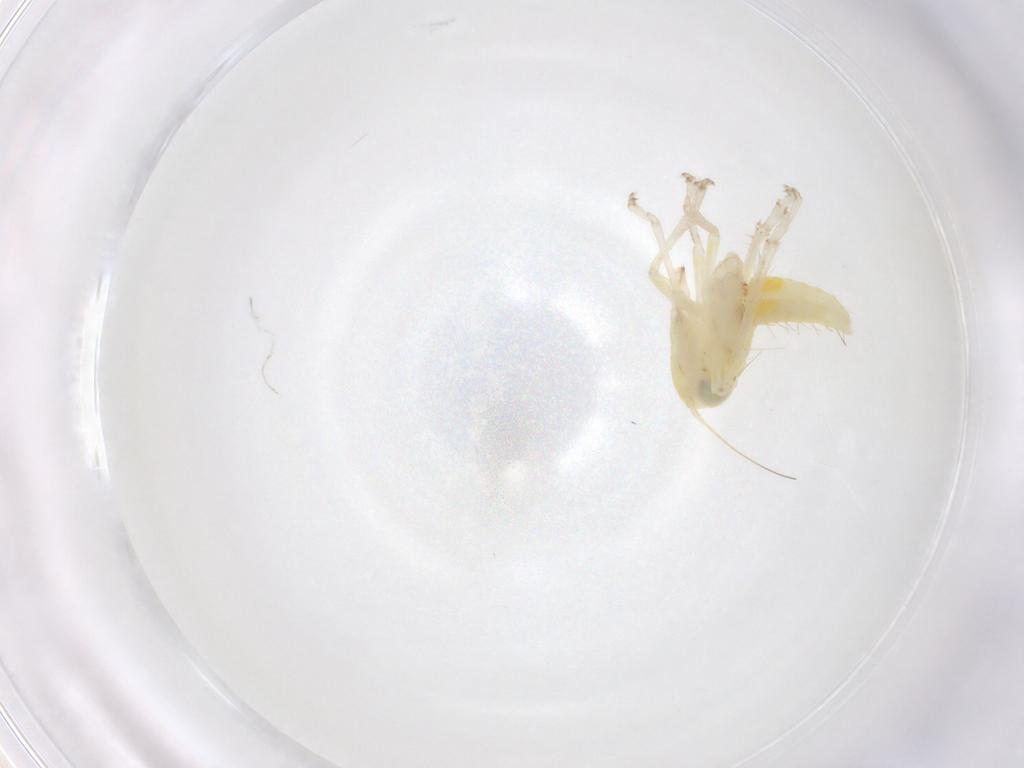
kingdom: Animalia
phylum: Arthropoda
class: Insecta
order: Hemiptera
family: Cicadellidae
